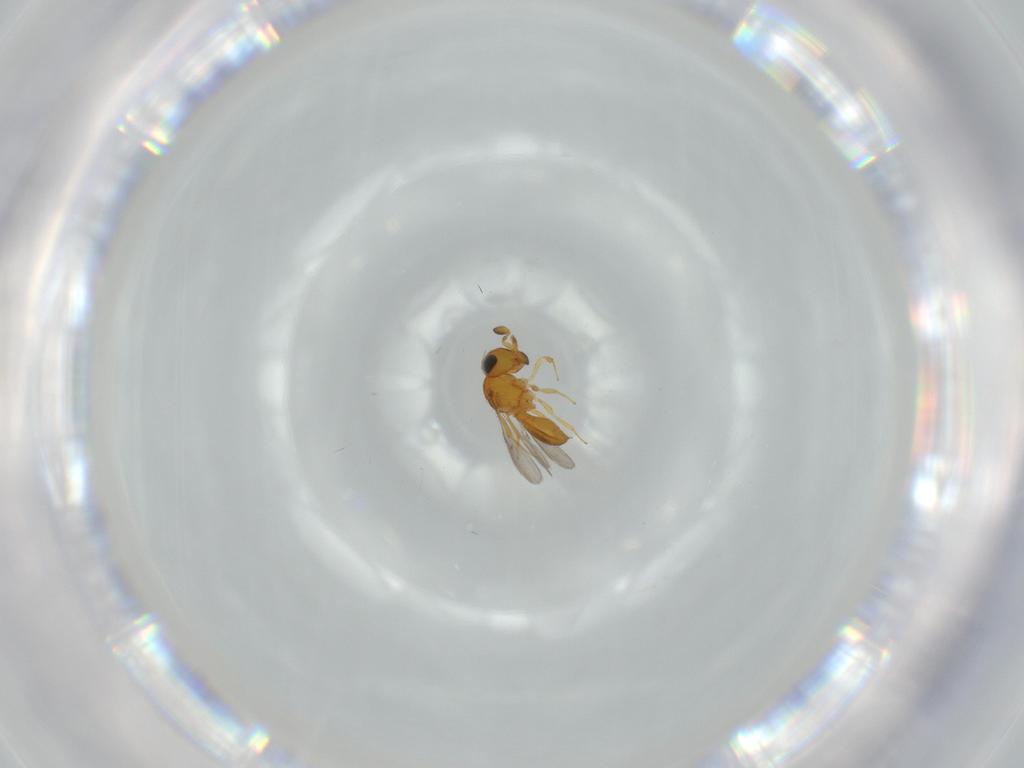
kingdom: Animalia
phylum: Arthropoda
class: Insecta
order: Hymenoptera
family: Scelionidae
